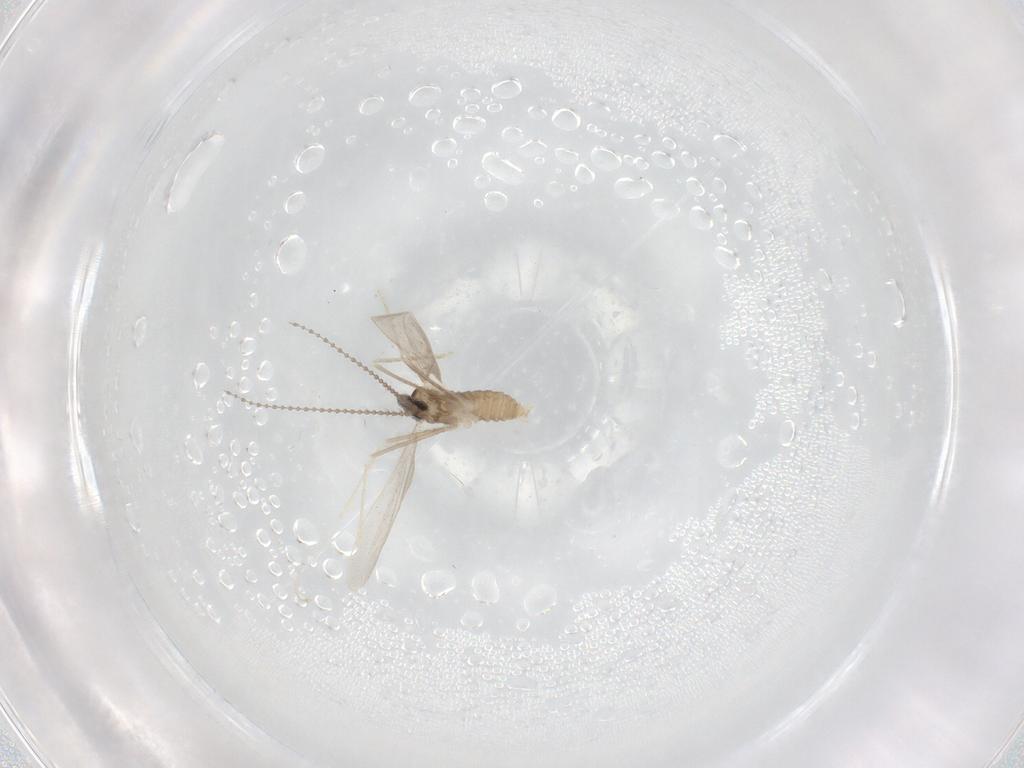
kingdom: Animalia
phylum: Arthropoda
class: Insecta
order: Diptera
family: Cecidomyiidae
